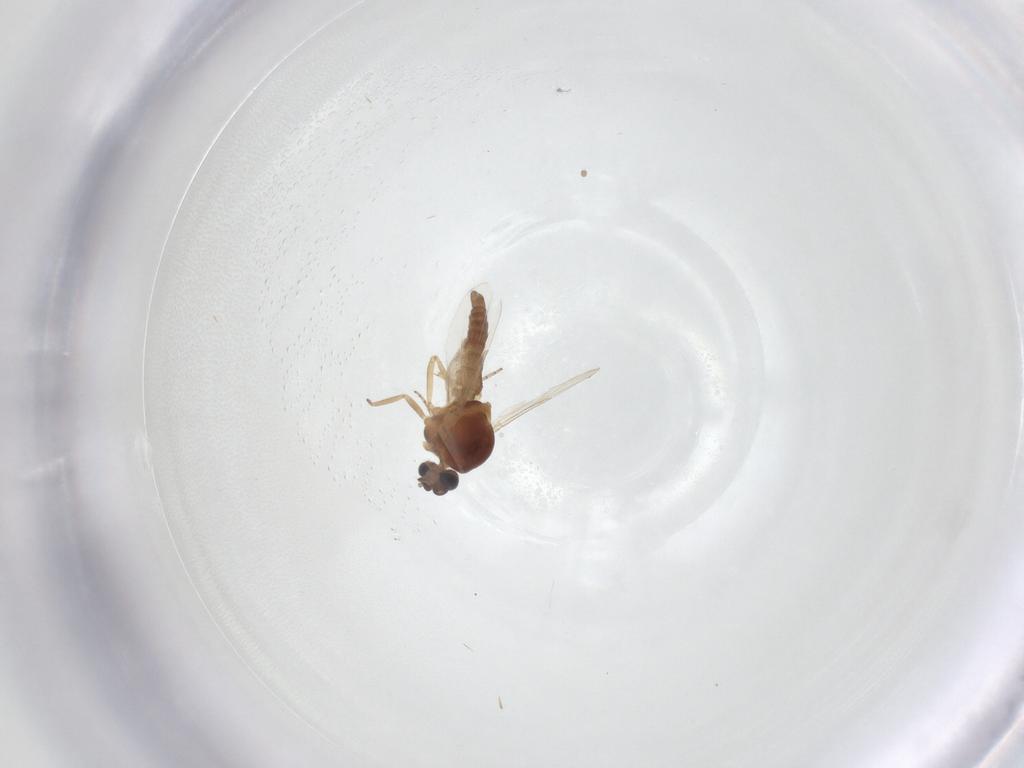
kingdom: Animalia
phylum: Arthropoda
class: Insecta
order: Diptera
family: Ceratopogonidae
